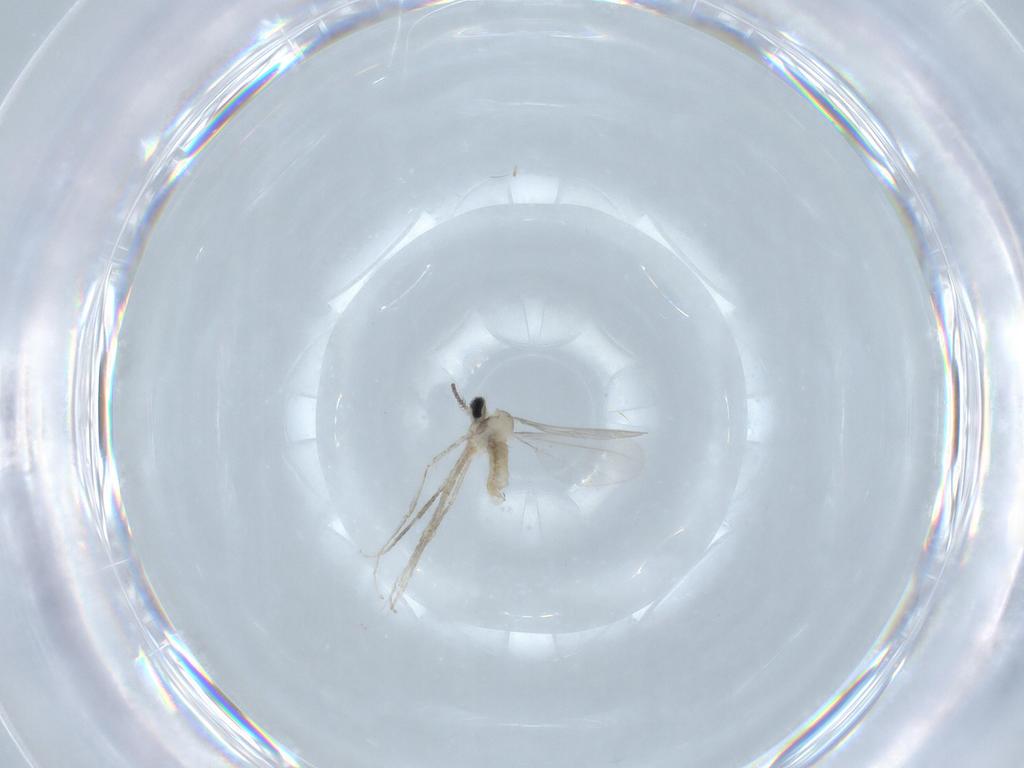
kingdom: Animalia
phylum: Arthropoda
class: Insecta
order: Diptera
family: Cecidomyiidae
